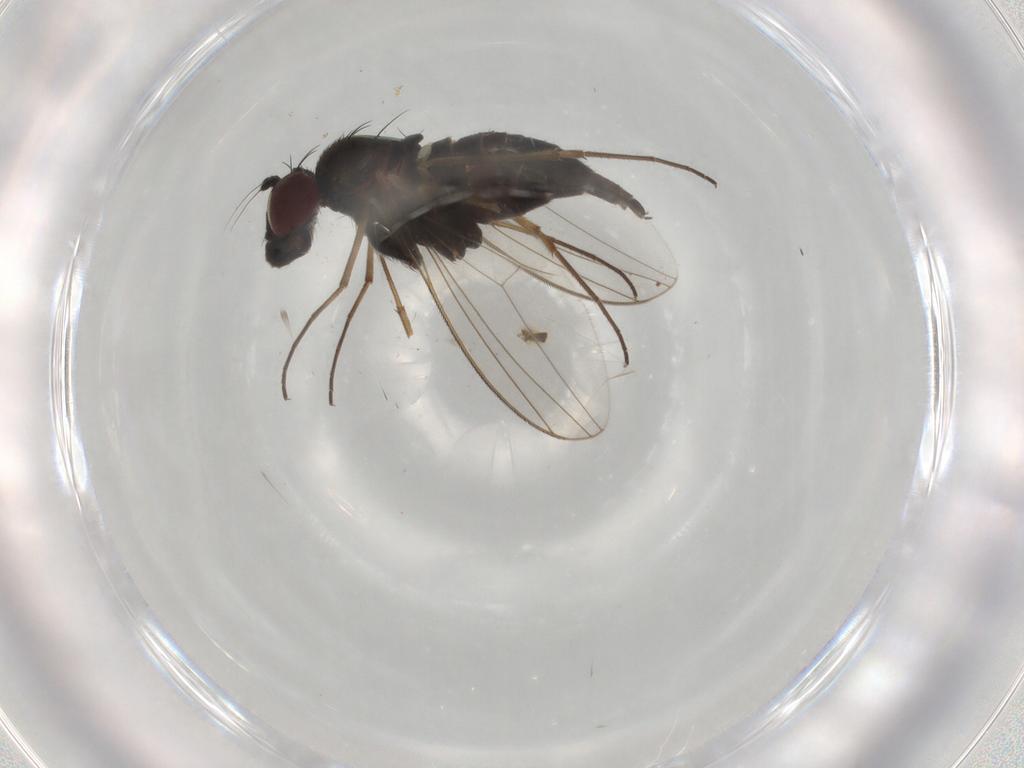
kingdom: Animalia
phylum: Arthropoda
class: Insecta
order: Diptera
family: Dolichopodidae
